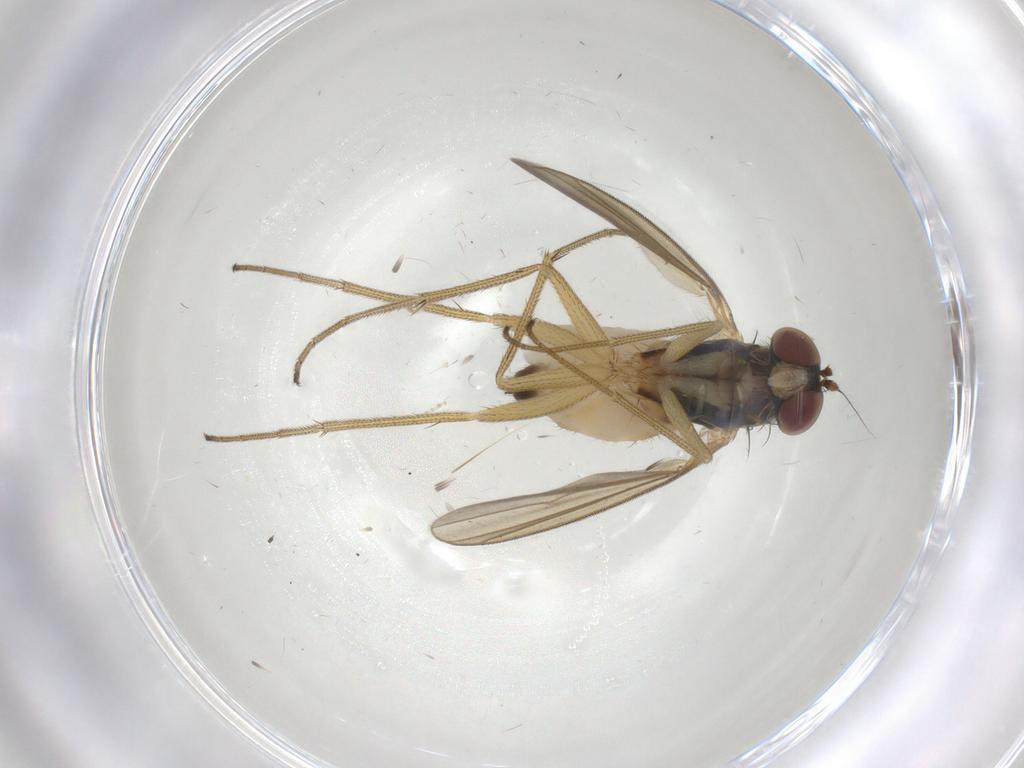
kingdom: Animalia
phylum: Arthropoda
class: Insecta
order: Diptera
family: Dolichopodidae
